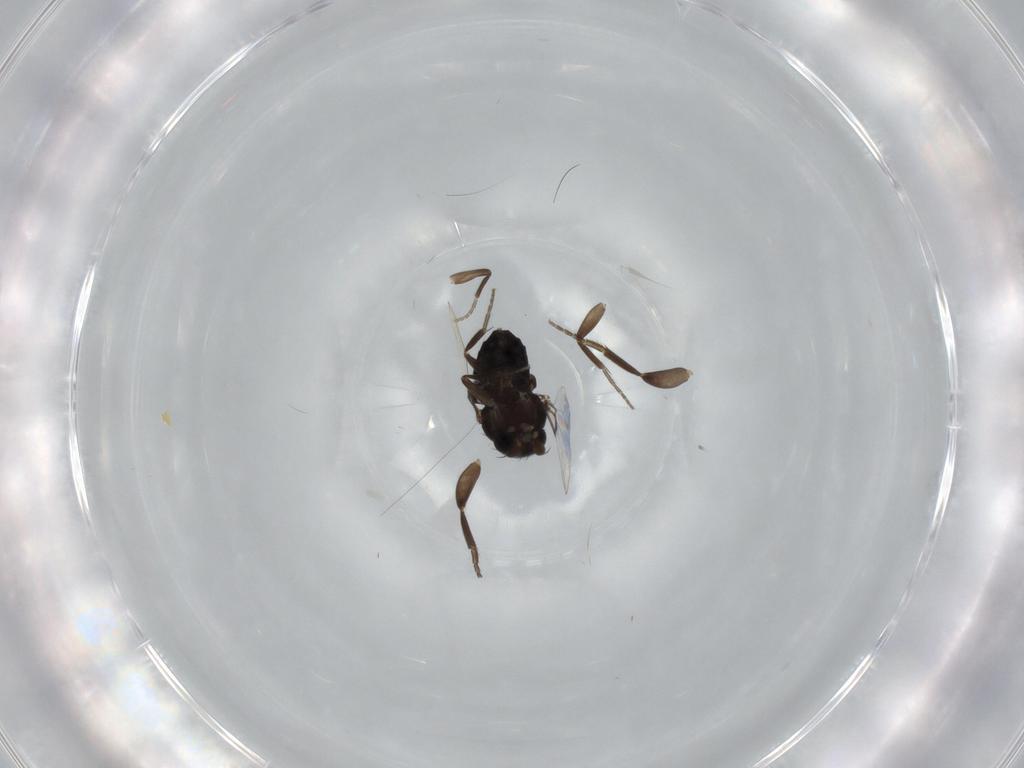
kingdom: Animalia
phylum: Arthropoda
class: Insecta
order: Diptera
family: Phoridae
